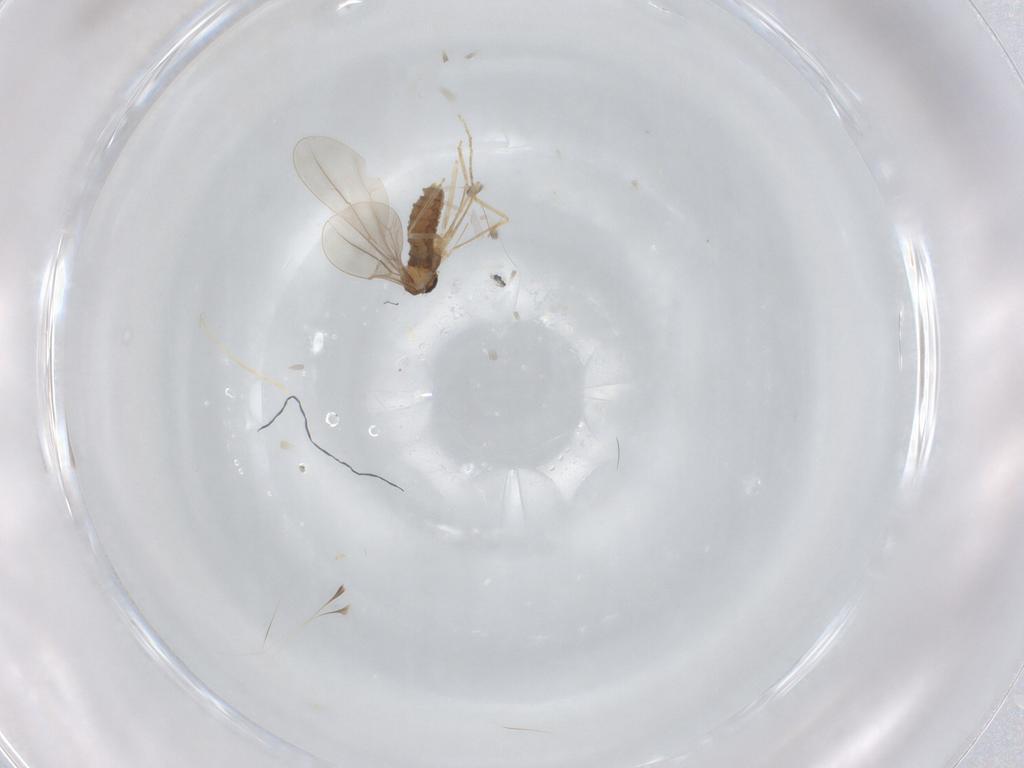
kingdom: Animalia
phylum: Arthropoda
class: Insecta
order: Diptera
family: Cecidomyiidae
